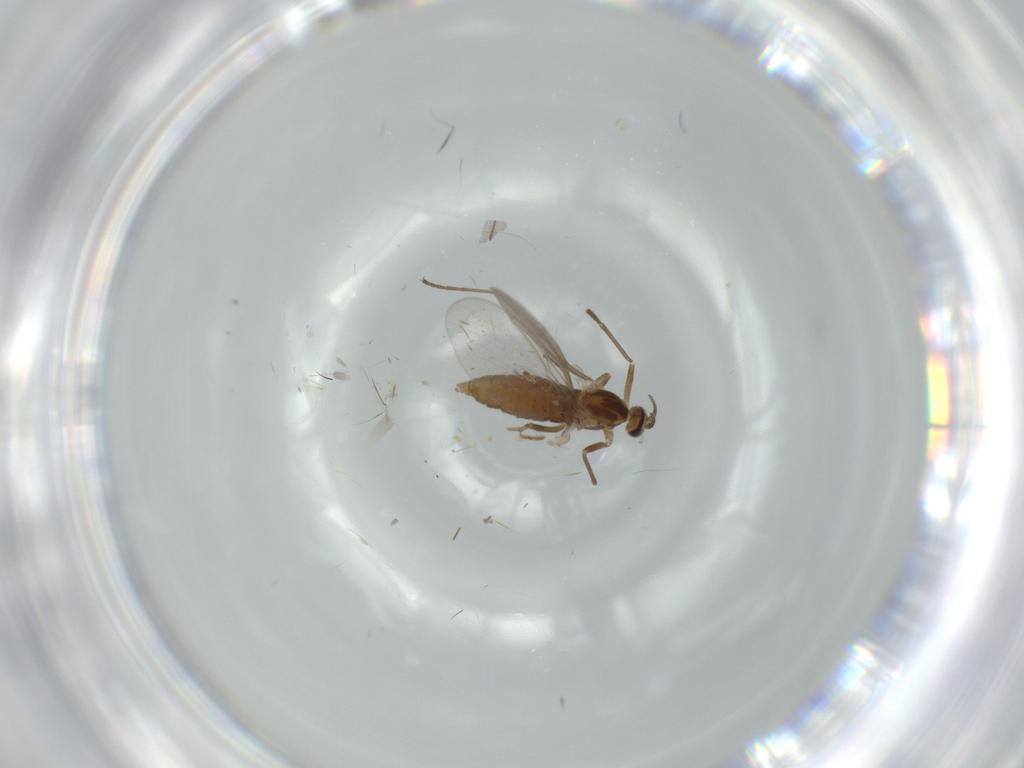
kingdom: Animalia
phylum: Arthropoda
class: Insecta
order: Diptera
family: Cecidomyiidae
